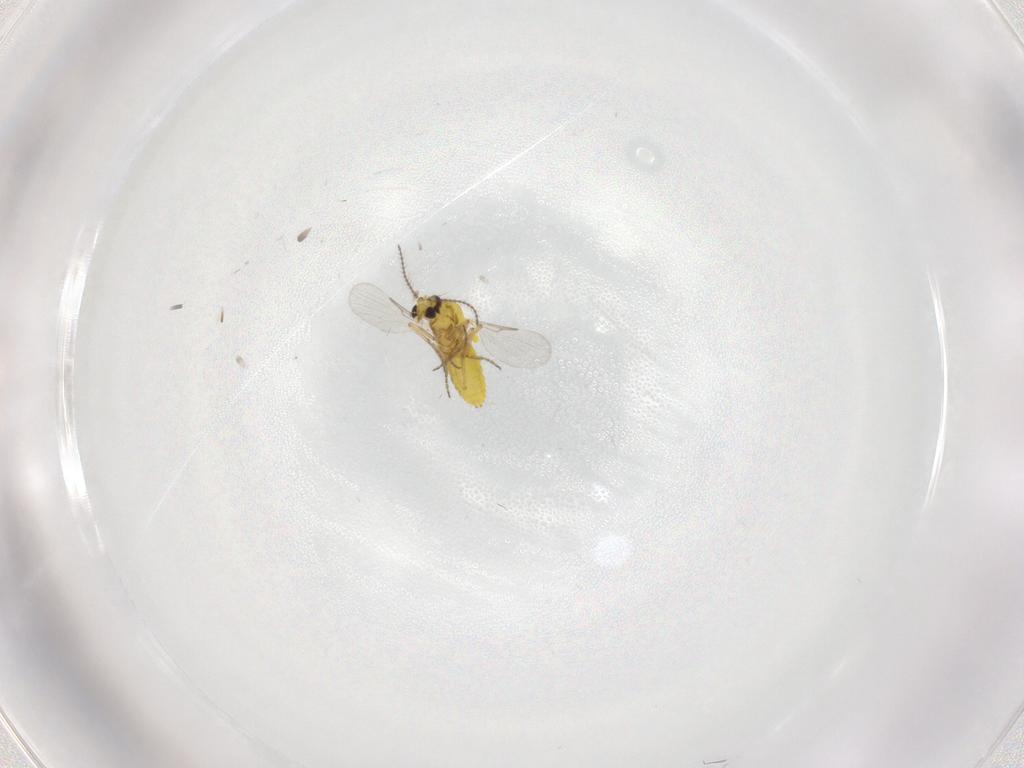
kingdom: Animalia
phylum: Arthropoda
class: Insecta
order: Diptera
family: Ceratopogonidae
